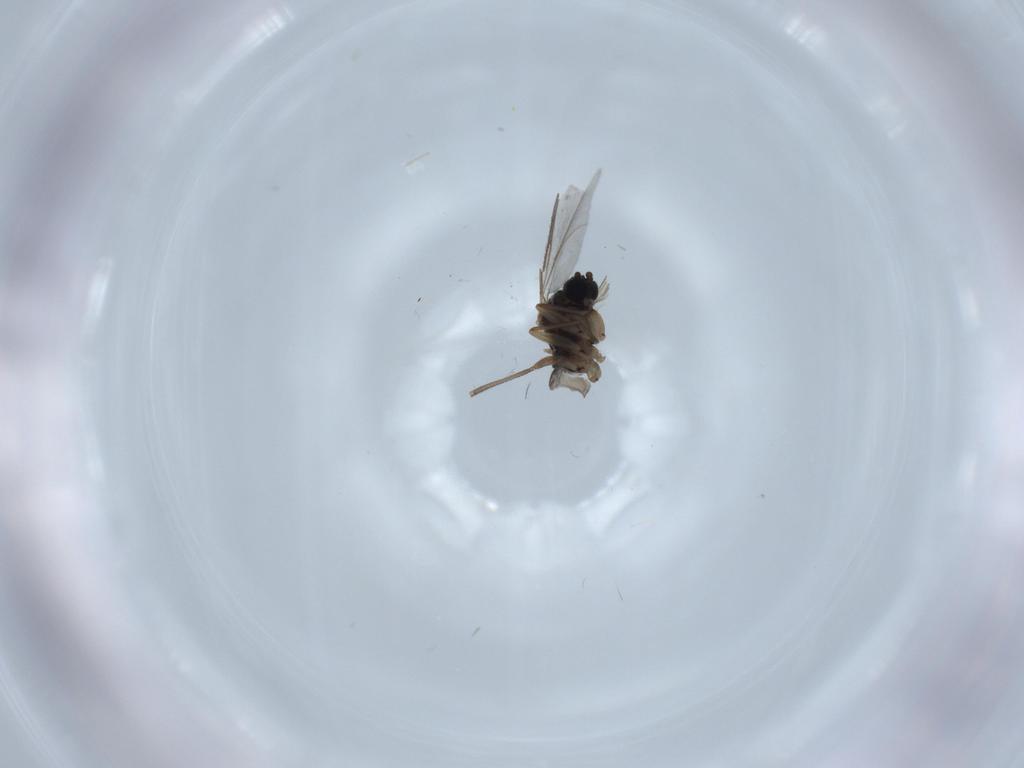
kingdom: Animalia
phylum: Arthropoda
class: Insecta
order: Diptera
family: Sciaridae
